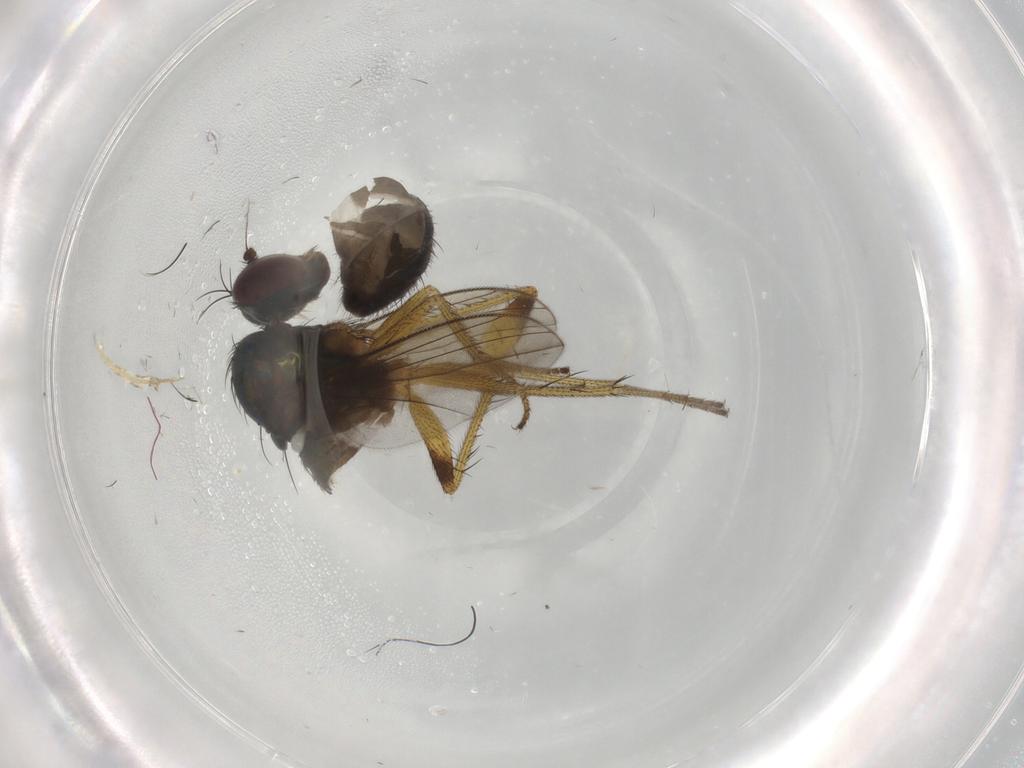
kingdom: Animalia
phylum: Arthropoda
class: Insecta
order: Diptera
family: Dolichopodidae
